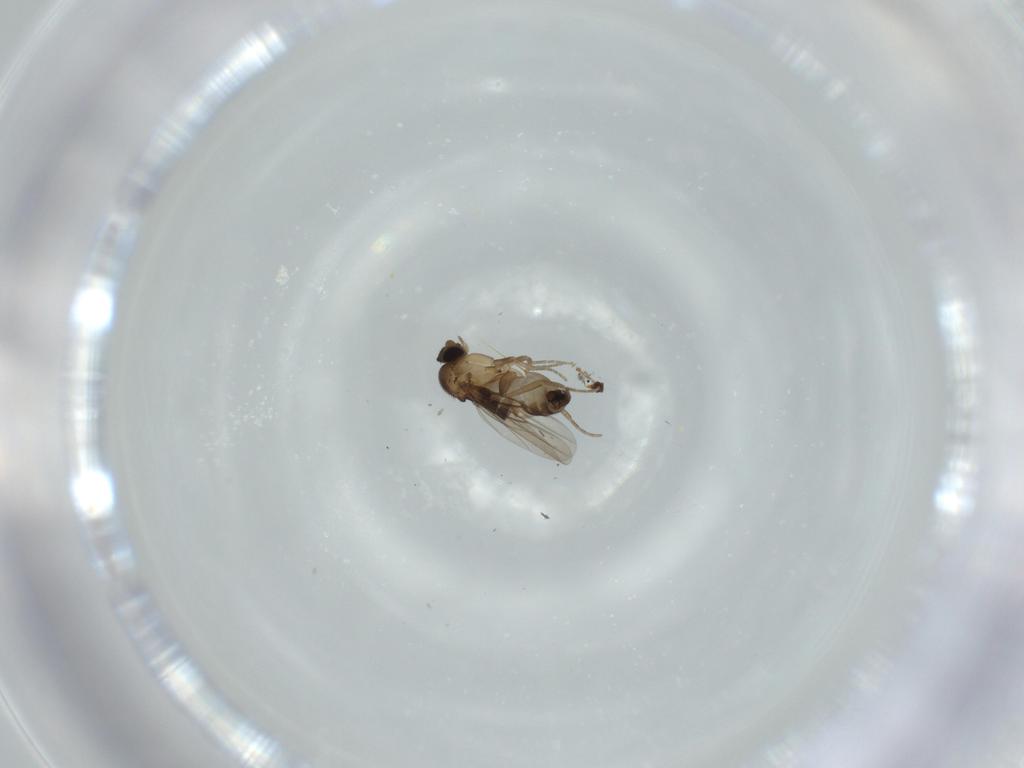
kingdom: Animalia
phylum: Arthropoda
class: Insecta
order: Diptera
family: Phoridae
